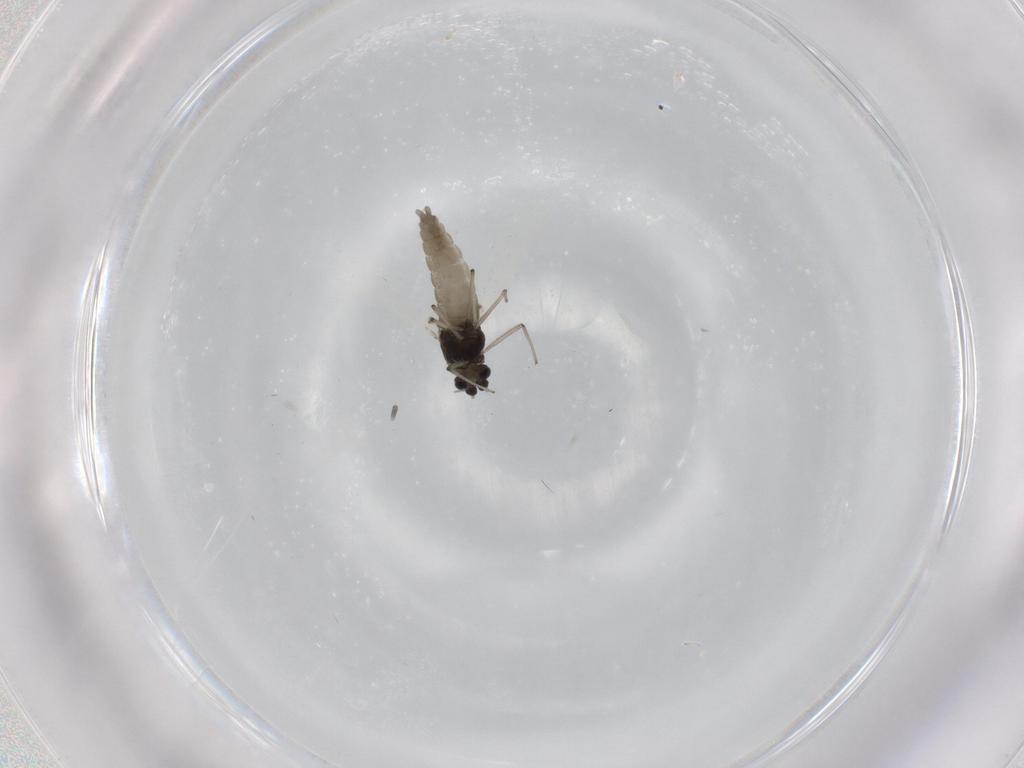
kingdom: Animalia
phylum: Arthropoda
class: Insecta
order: Diptera
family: Chironomidae
